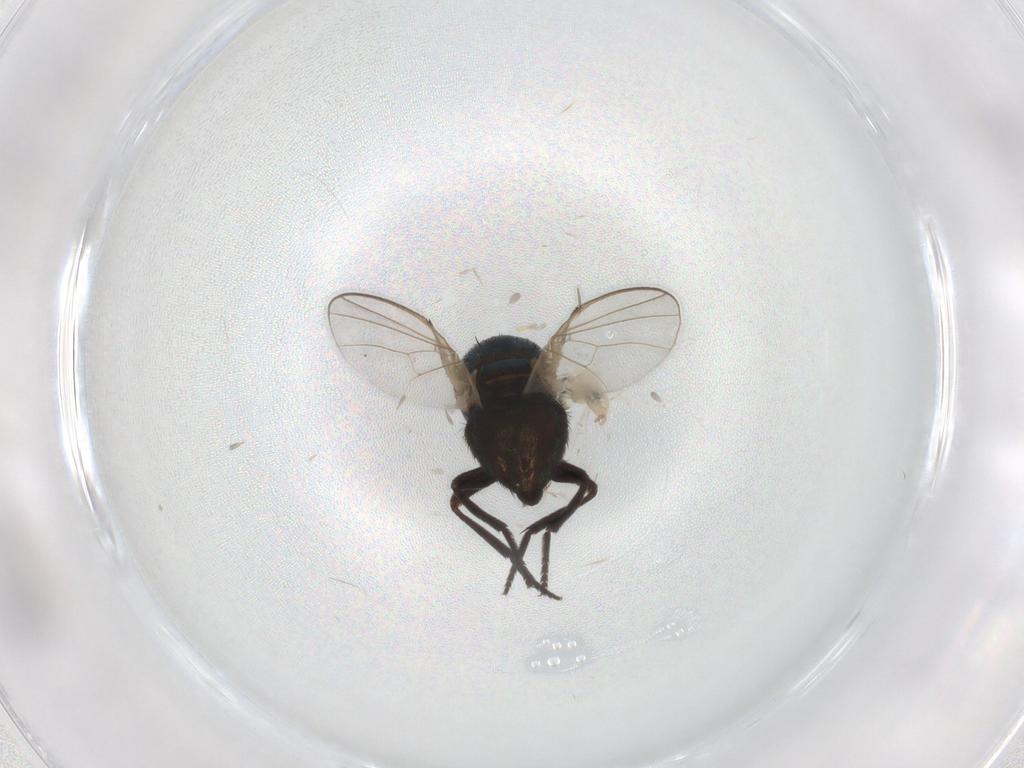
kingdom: Animalia
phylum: Arthropoda
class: Insecta
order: Diptera
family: Cecidomyiidae
